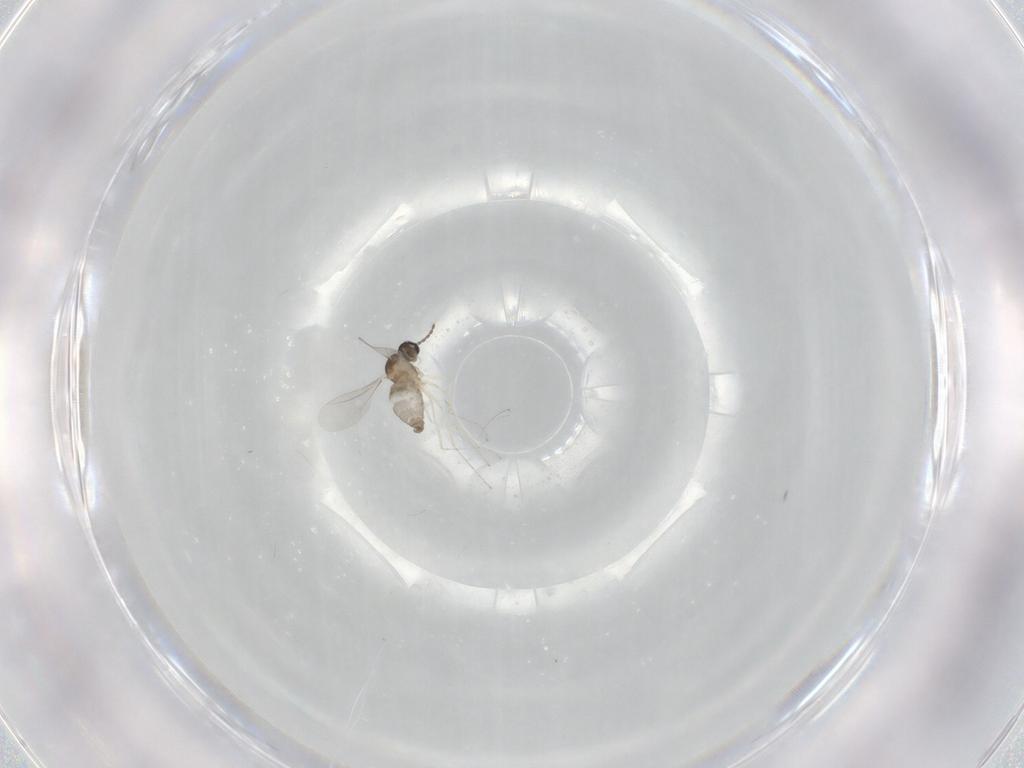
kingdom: Animalia
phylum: Arthropoda
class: Insecta
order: Diptera
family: Cecidomyiidae
